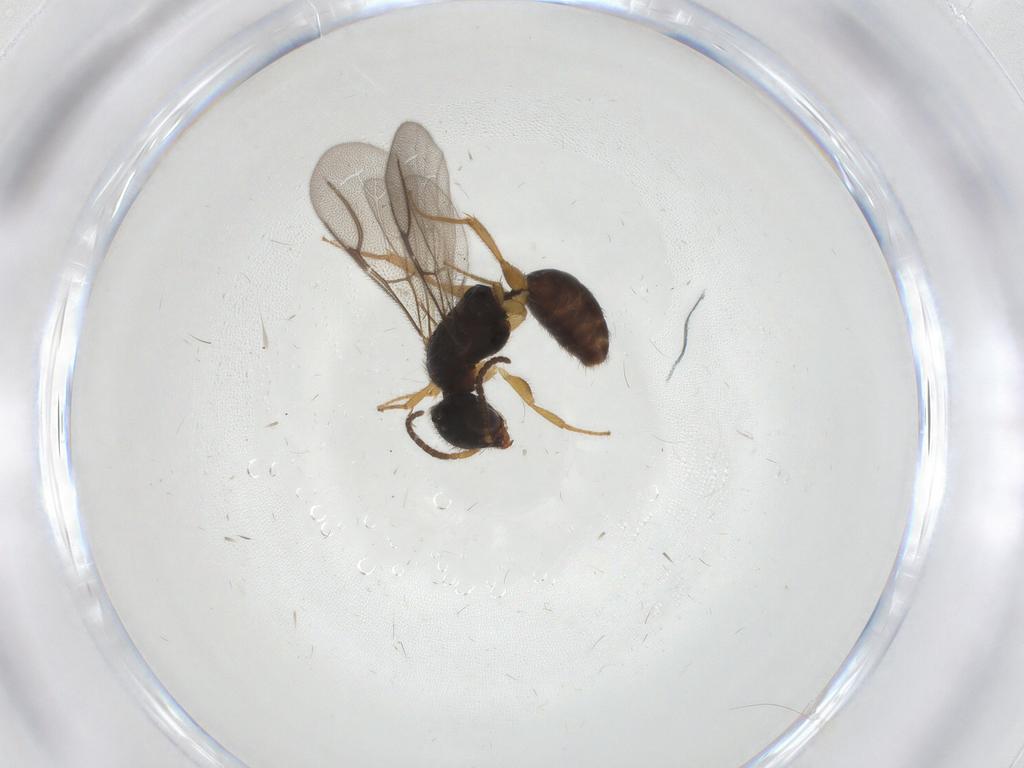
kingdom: Animalia
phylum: Arthropoda
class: Insecta
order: Hymenoptera
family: Bethylidae
